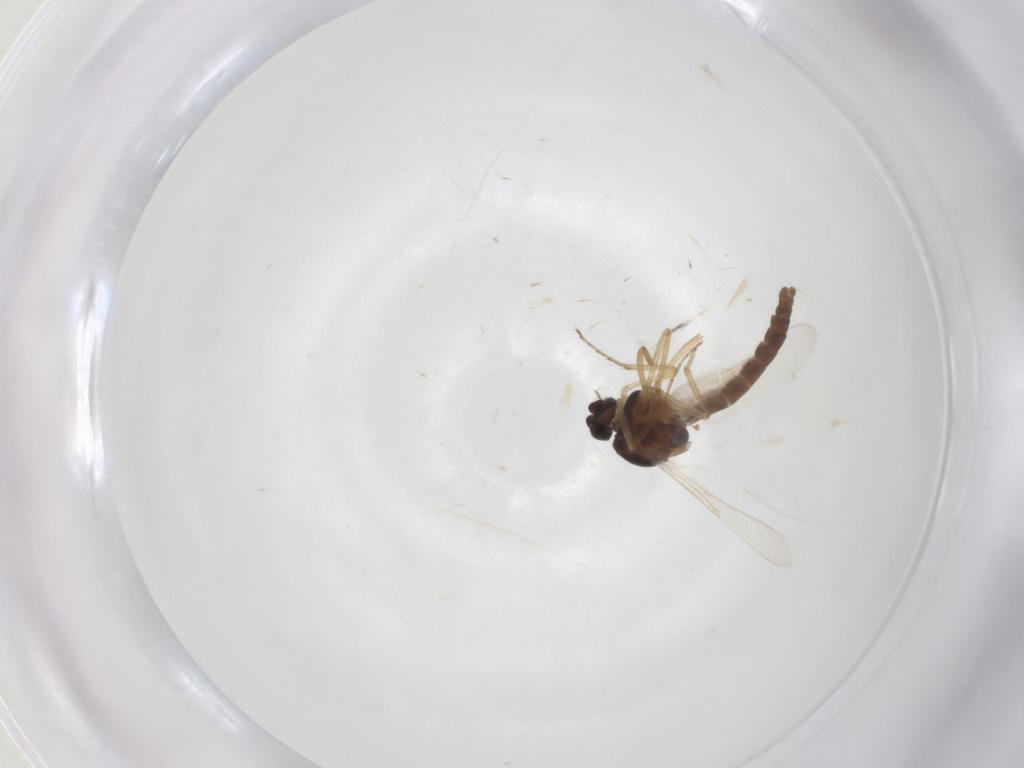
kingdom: Animalia
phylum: Arthropoda
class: Insecta
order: Diptera
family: Ceratopogonidae
